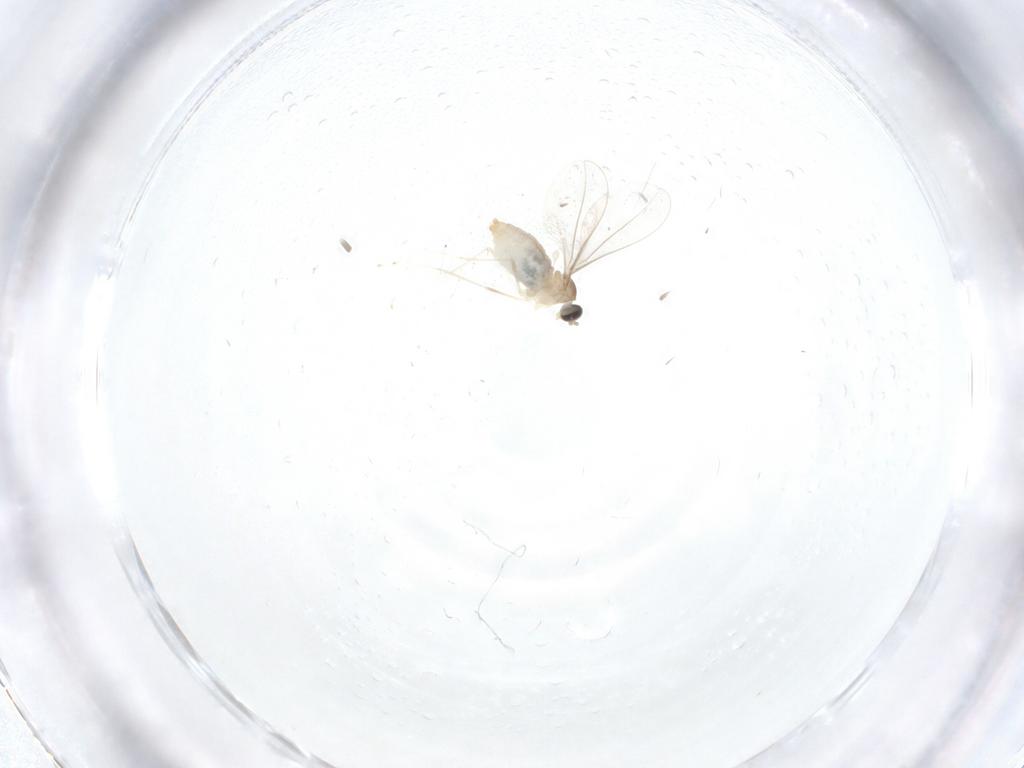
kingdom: Animalia
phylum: Arthropoda
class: Insecta
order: Diptera
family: Cecidomyiidae
